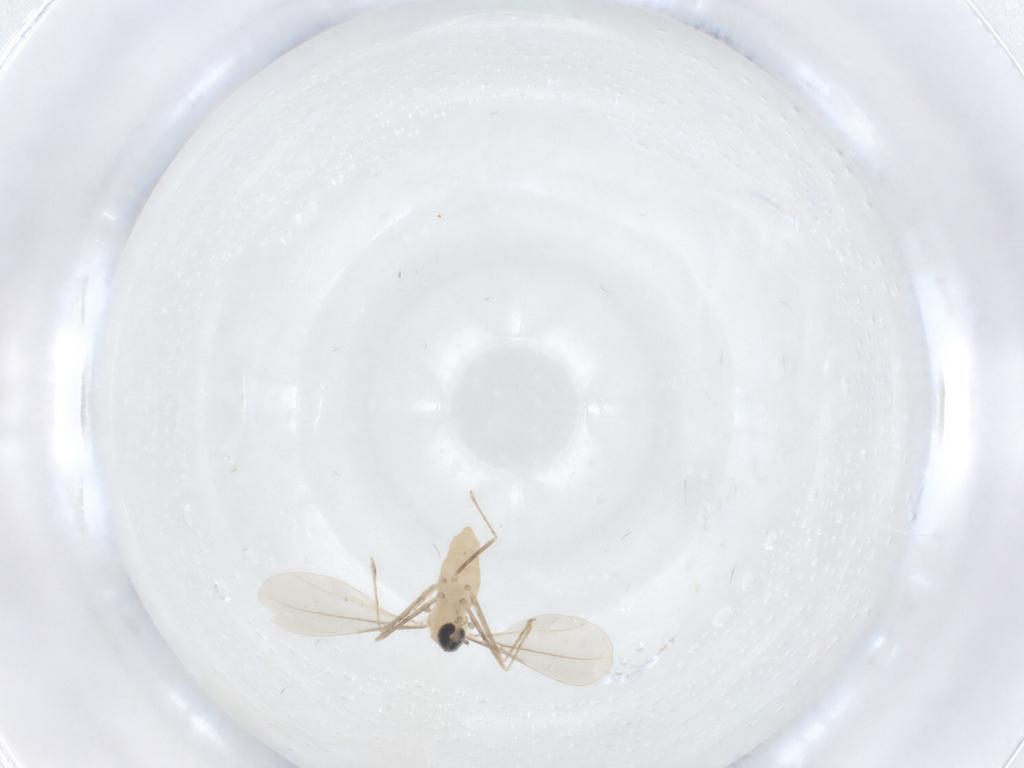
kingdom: Animalia
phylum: Arthropoda
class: Insecta
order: Diptera
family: Cecidomyiidae
